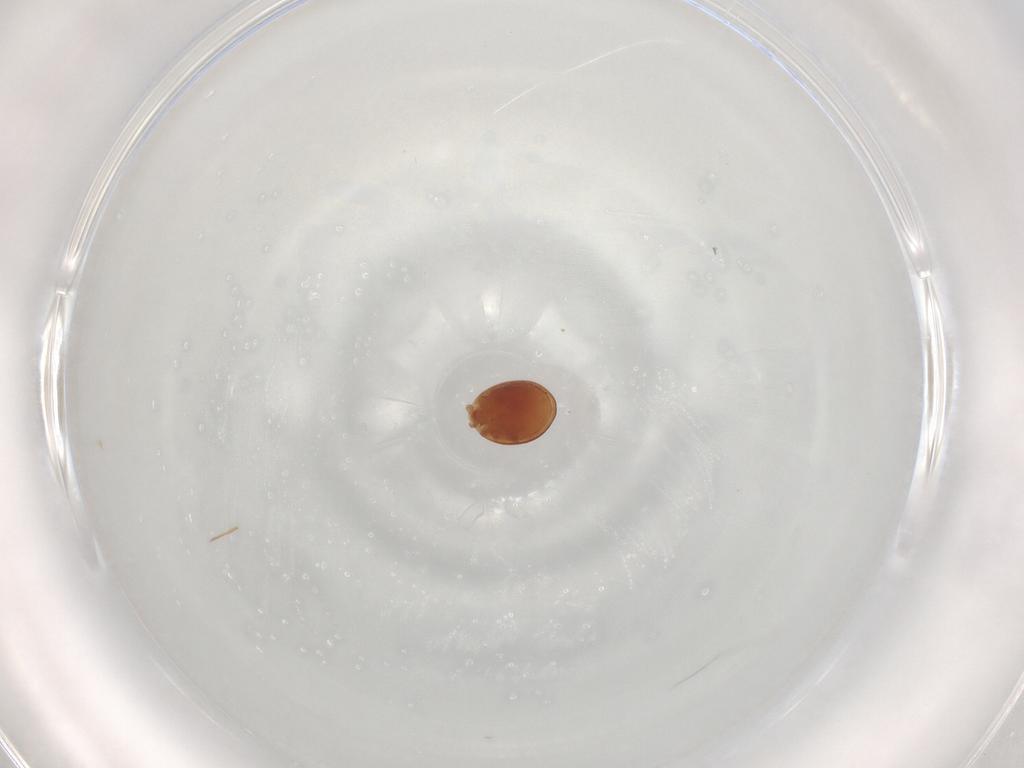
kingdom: Animalia
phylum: Arthropoda
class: Arachnida
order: Mesostigmata
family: Trematuridae
